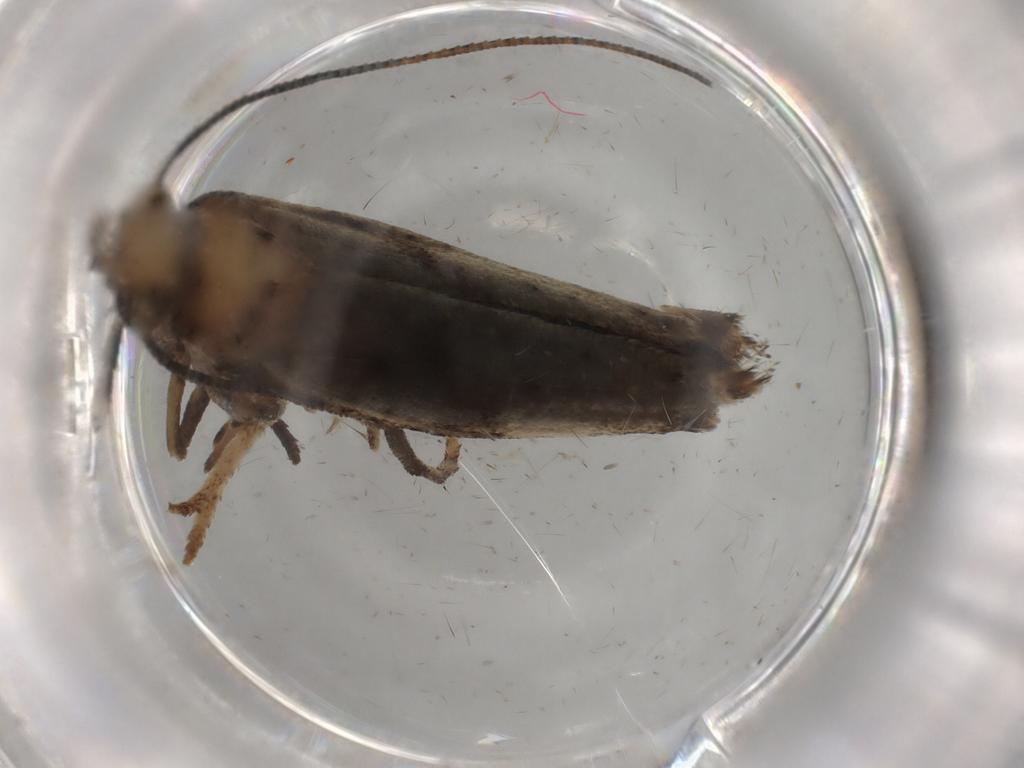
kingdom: Animalia
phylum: Arthropoda
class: Insecta
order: Lepidoptera
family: Yponomeutidae
